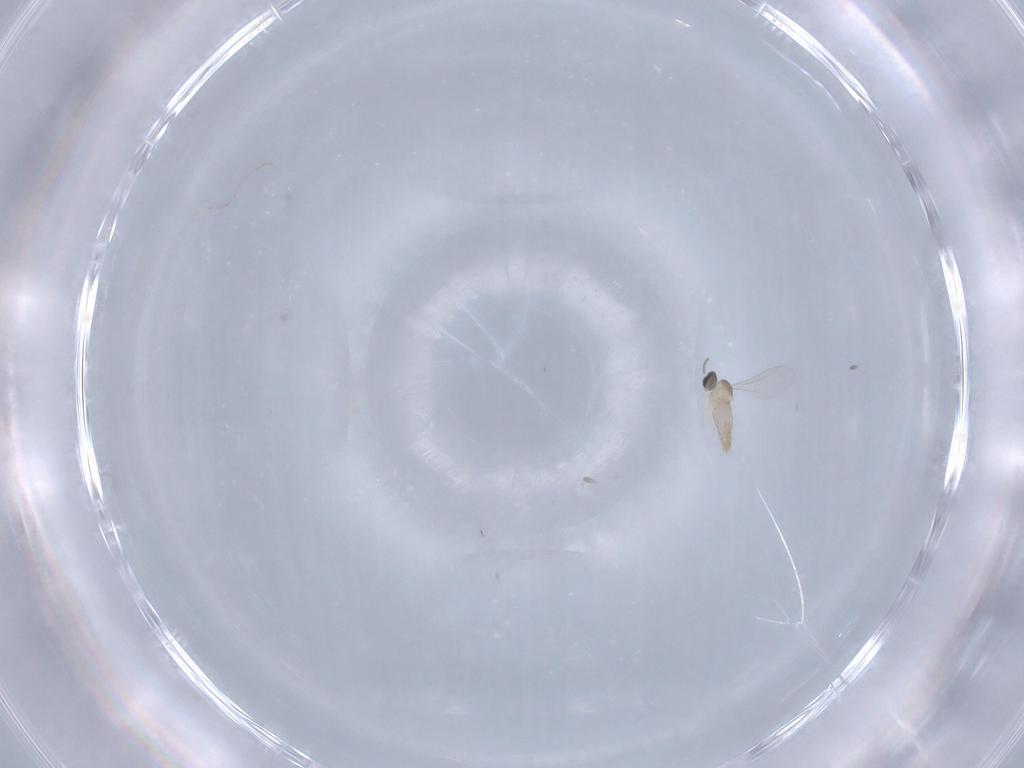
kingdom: Animalia
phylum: Arthropoda
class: Insecta
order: Diptera
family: Cecidomyiidae
